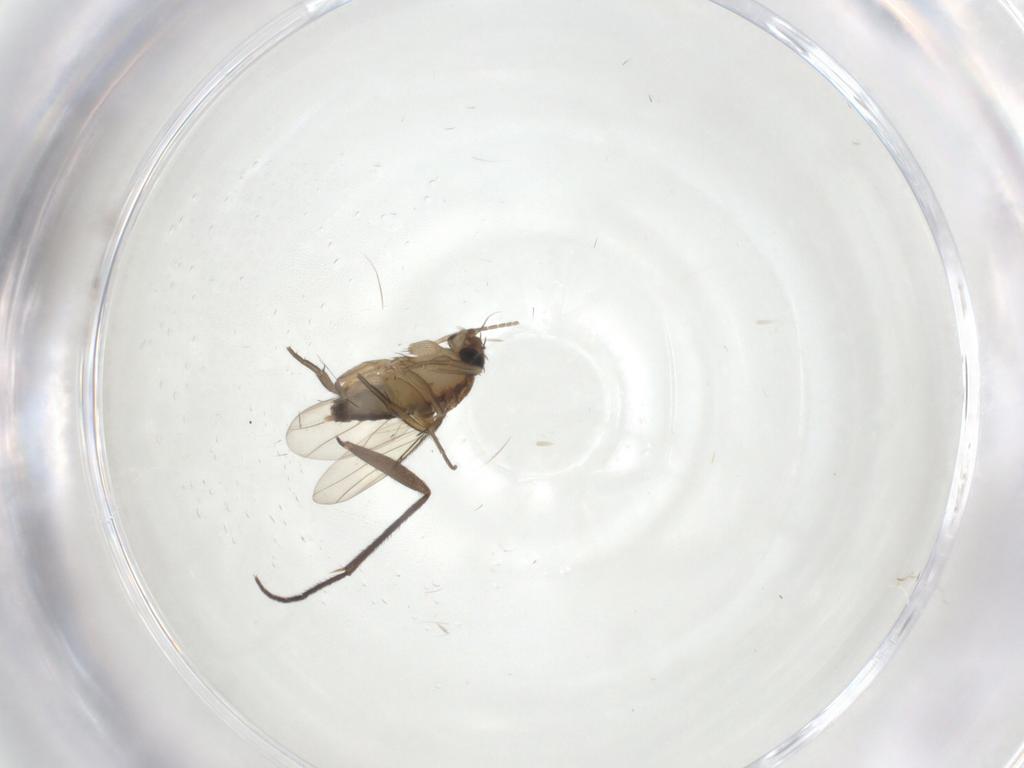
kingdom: Animalia
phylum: Arthropoda
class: Insecta
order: Diptera
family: Sciaridae
